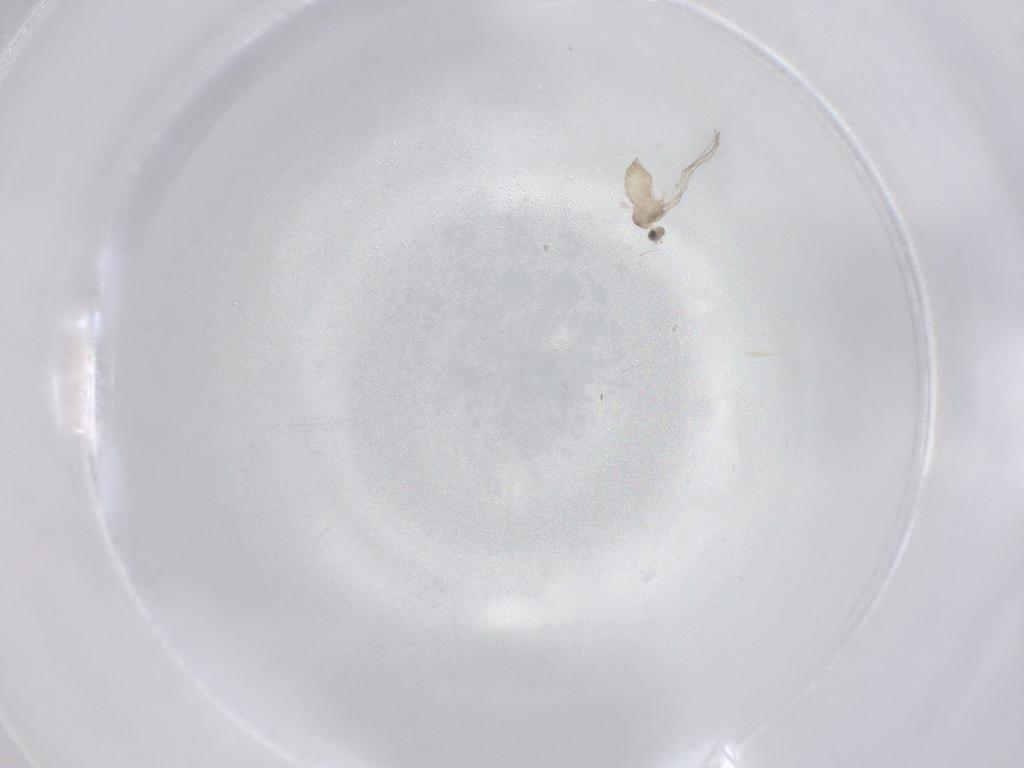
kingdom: Animalia
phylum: Arthropoda
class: Insecta
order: Diptera
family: Cecidomyiidae
